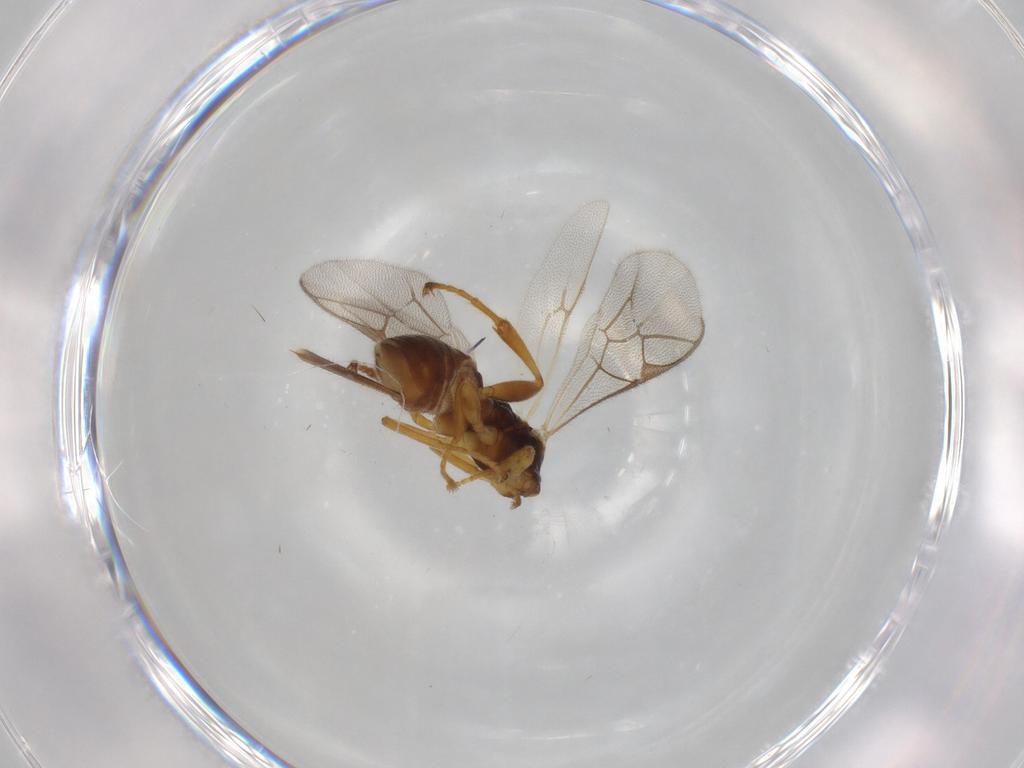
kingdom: Animalia
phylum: Arthropoda
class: Insecta
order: Hymenoptera
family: Ichneumonidae
